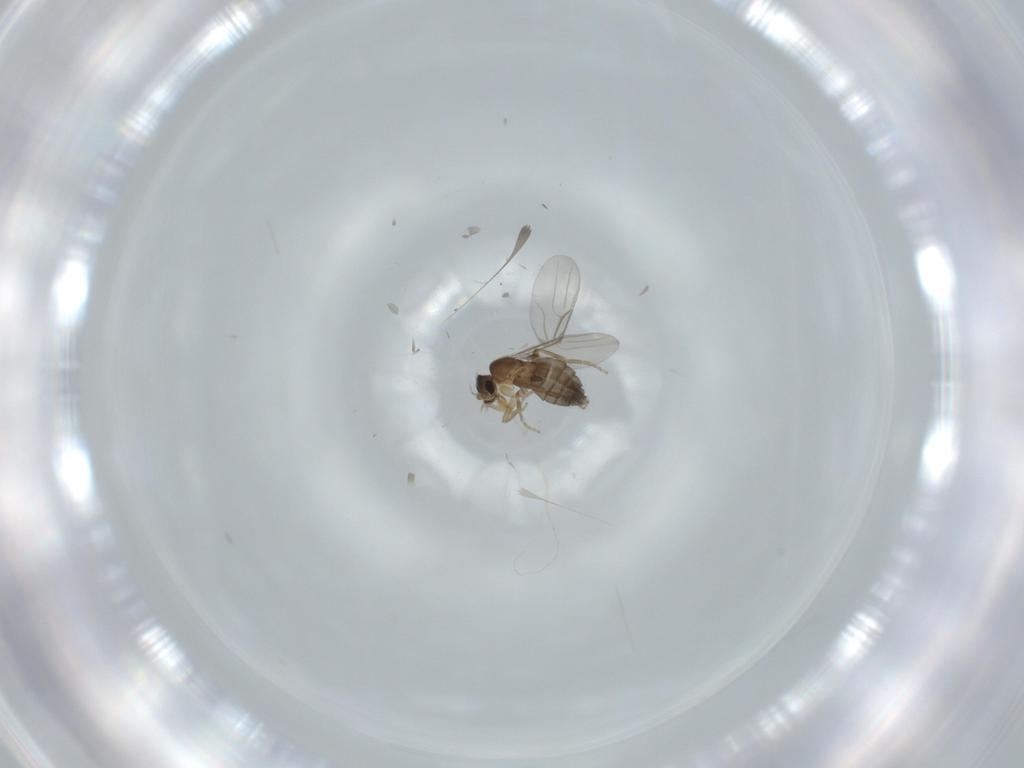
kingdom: Animalia
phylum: Arthropoda
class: Insecta
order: Diptera
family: Phoridae
